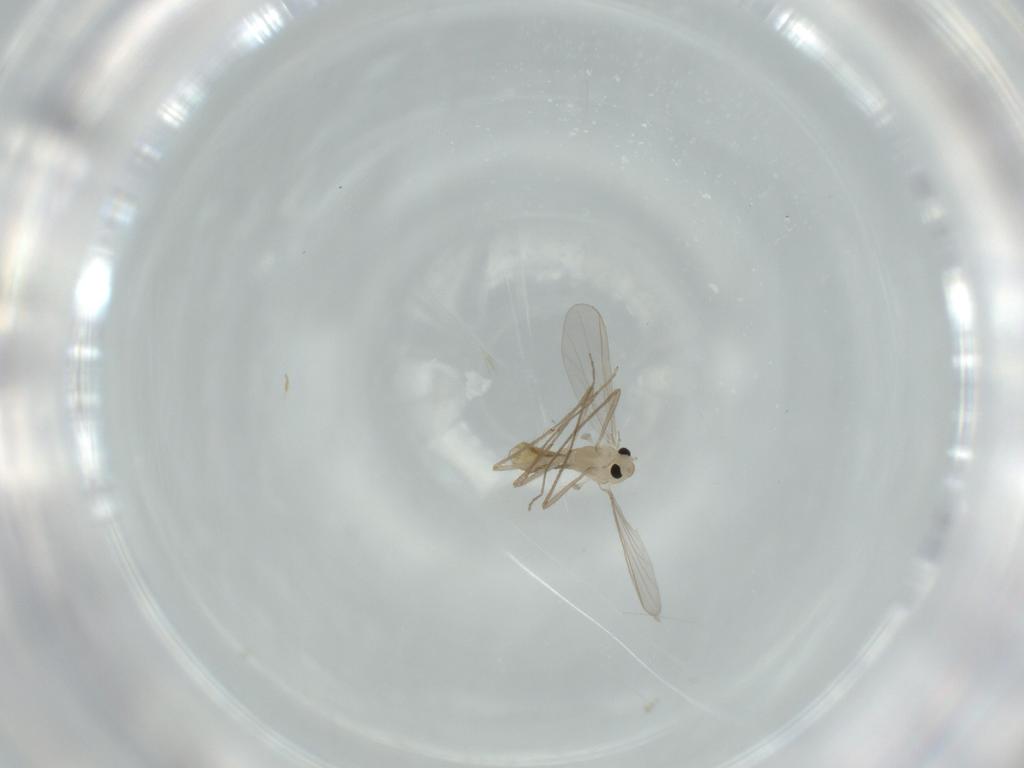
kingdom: Animalia
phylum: Arthropoda
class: Insecta
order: Diptera
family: Chironomidae
